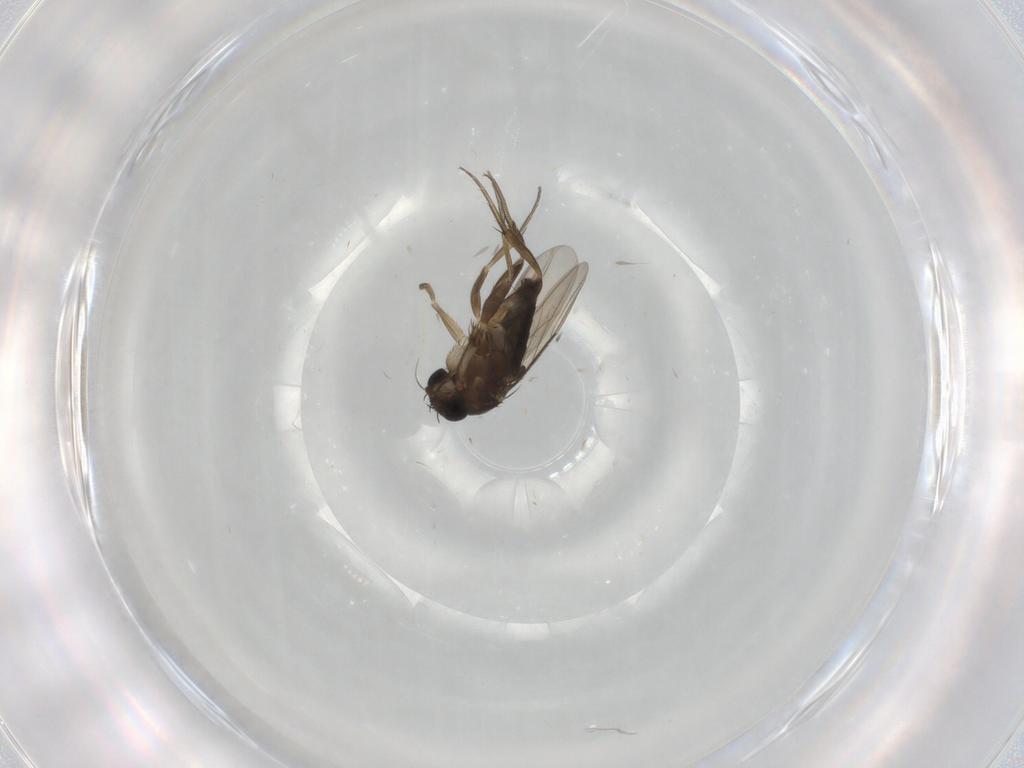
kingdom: Animalia
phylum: Arthropoda
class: Insecta
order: Diptera
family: Phoridae
